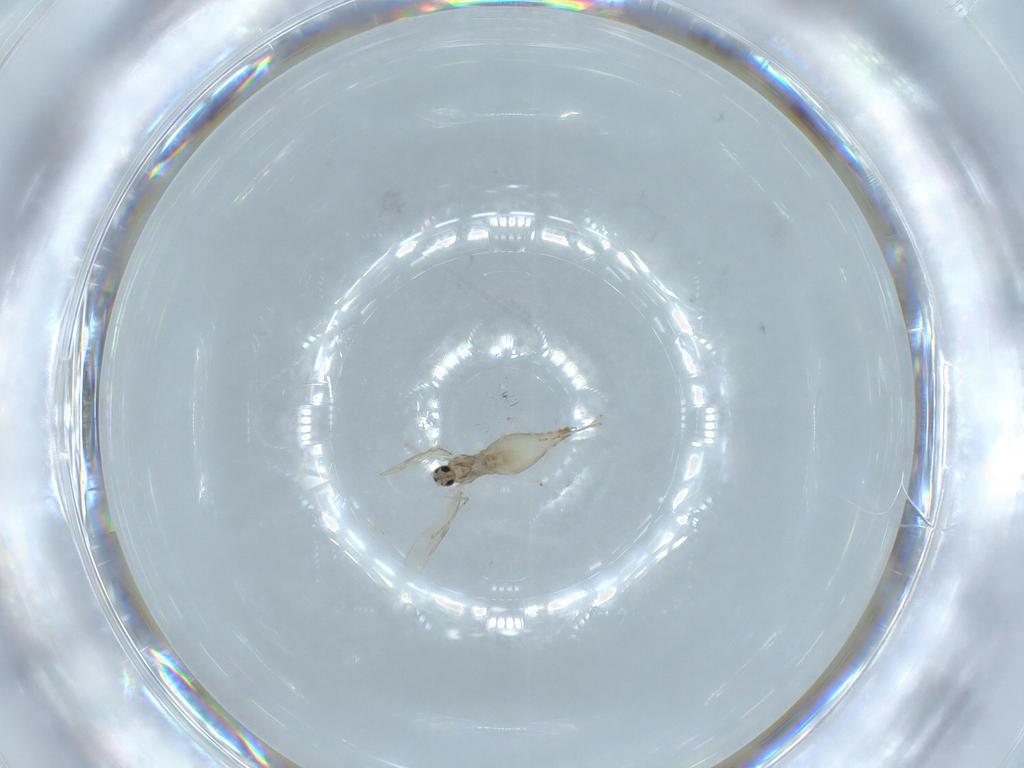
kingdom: Animalia
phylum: Arthropoda
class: Insecta
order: Diptera
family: Cecidomyiidae
